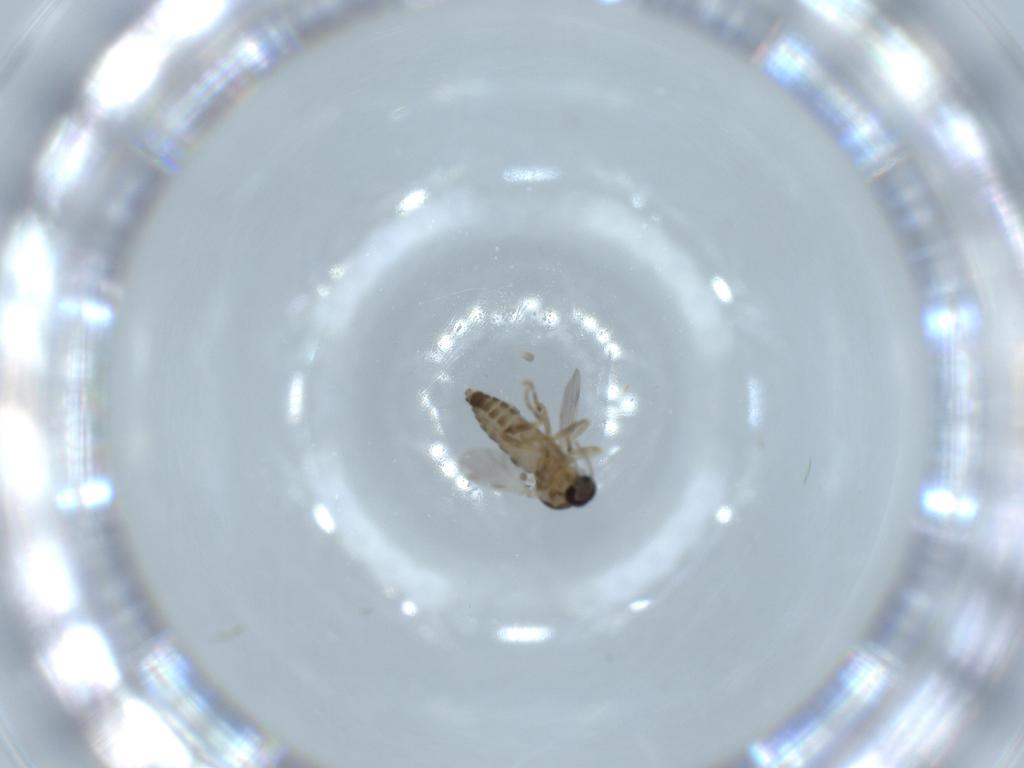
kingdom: Animalia
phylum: Arthropoda
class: Insecta
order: Diptera
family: Ceratopogonidae
